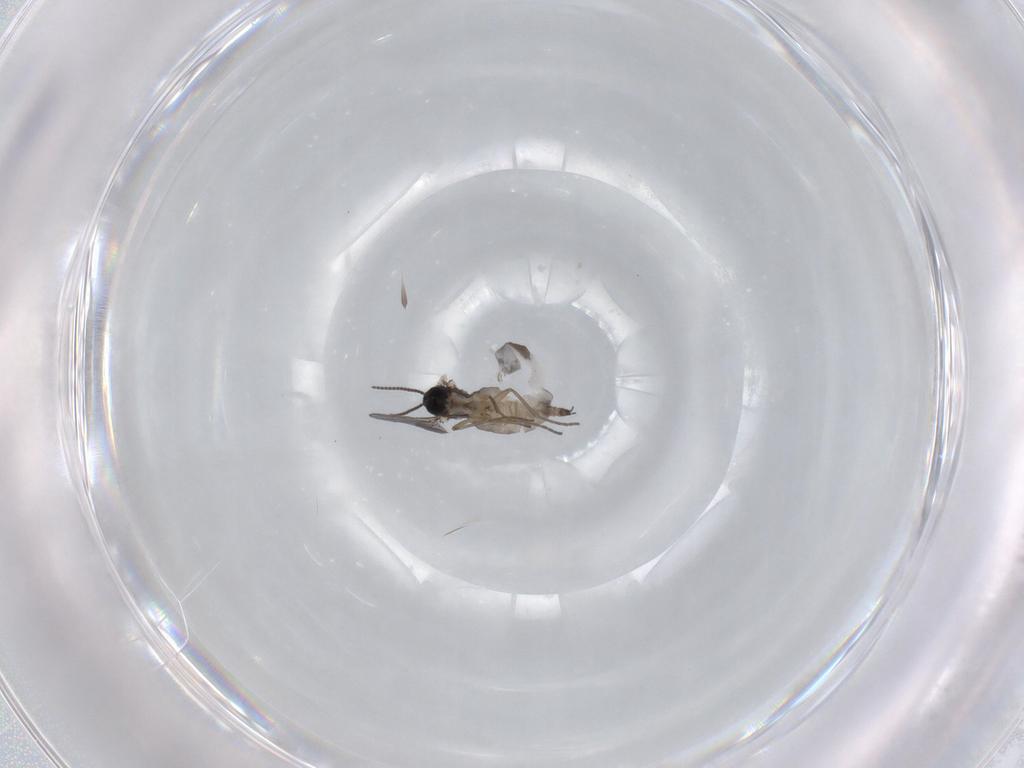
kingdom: Animalia
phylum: Arthropoda
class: Insecta
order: Diptera
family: Sciaridae
